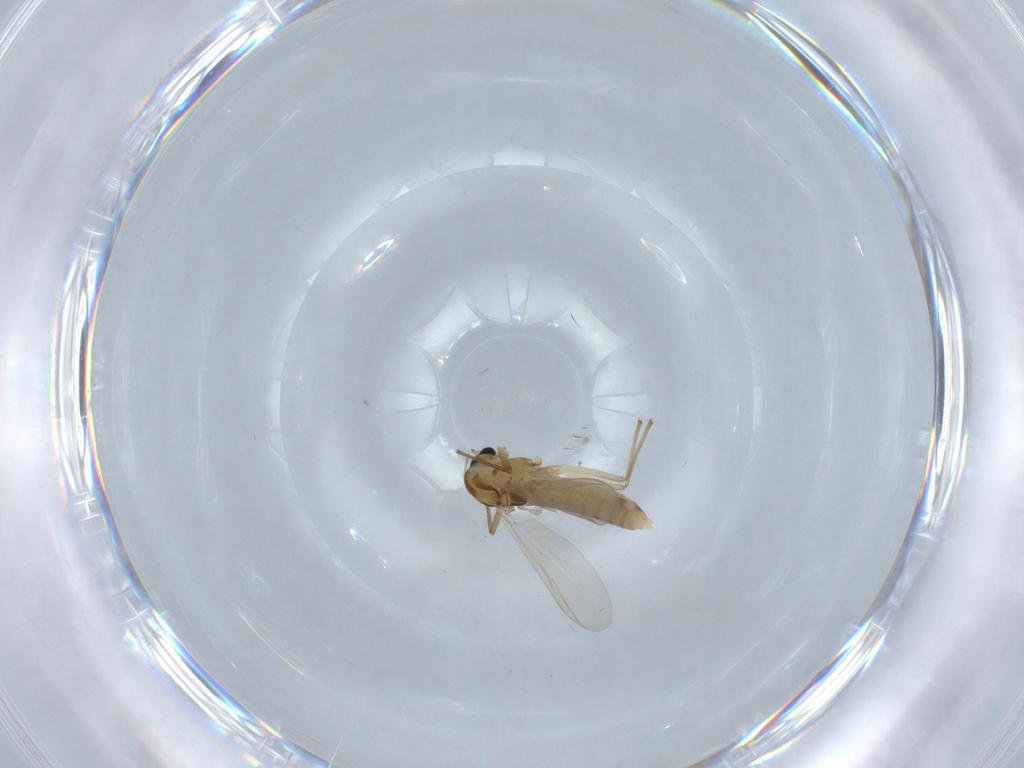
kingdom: Animalia
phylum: Arthropoda
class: Insecta
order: Diptera
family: Chironomidae
